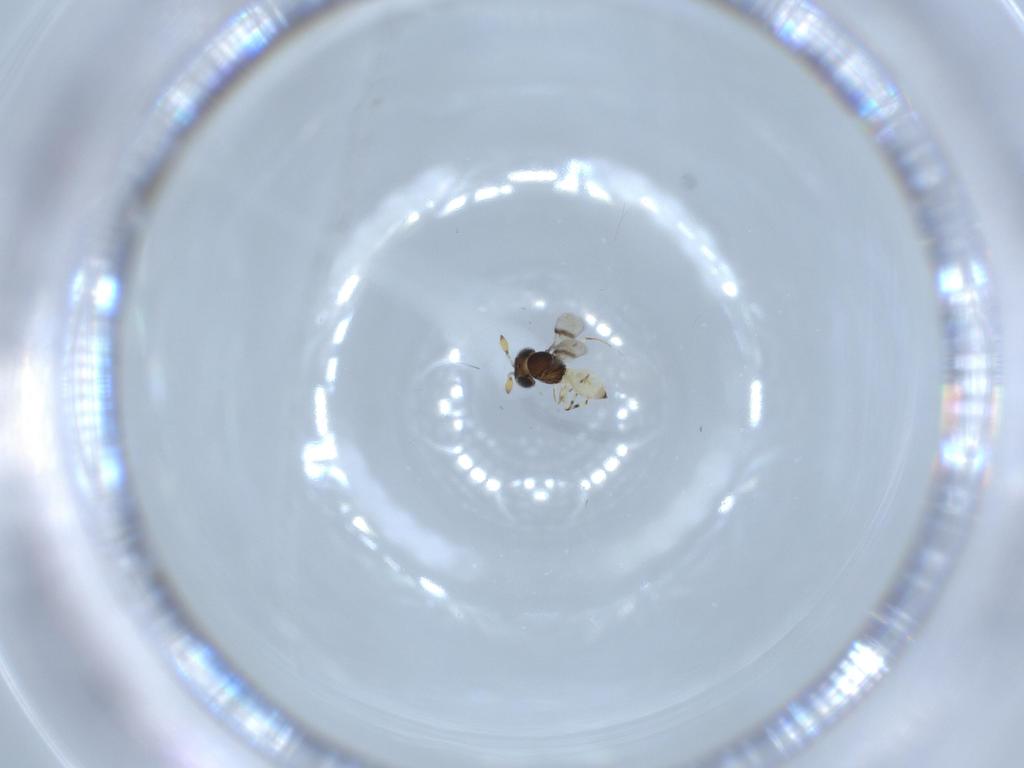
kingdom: Animalia
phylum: Arthropoda
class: Insecta
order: Hymenoptera
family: Scelionidae
